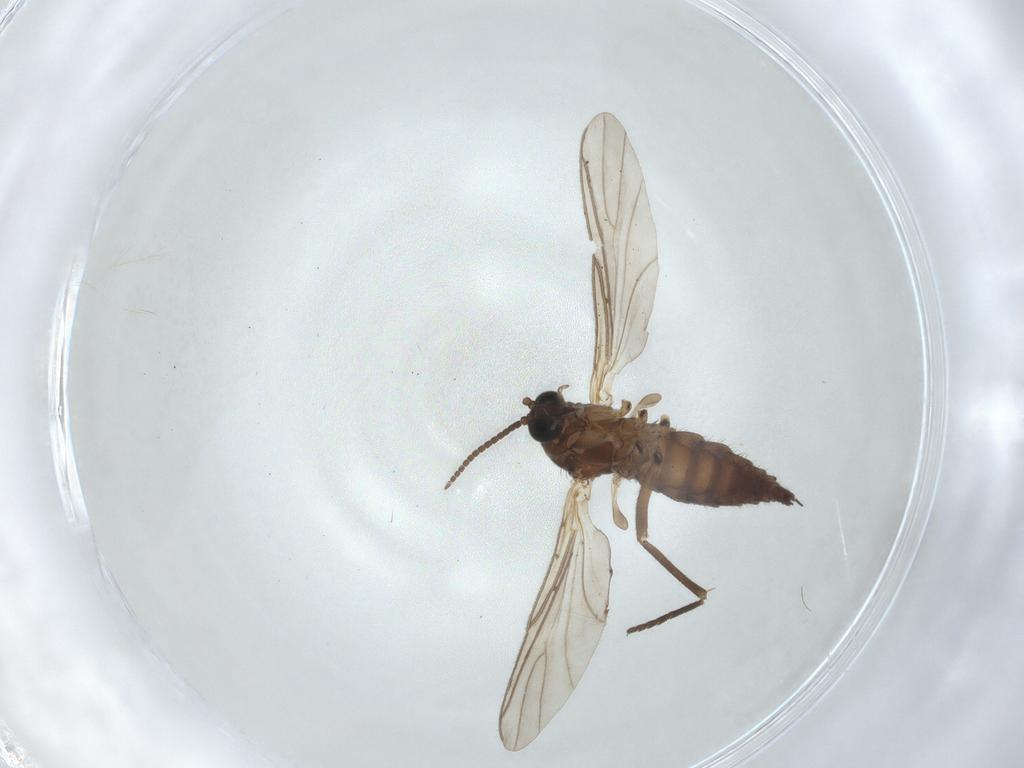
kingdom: Animalia
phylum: Arthropoda
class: Insecta
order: Diptera
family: Sciaridae
